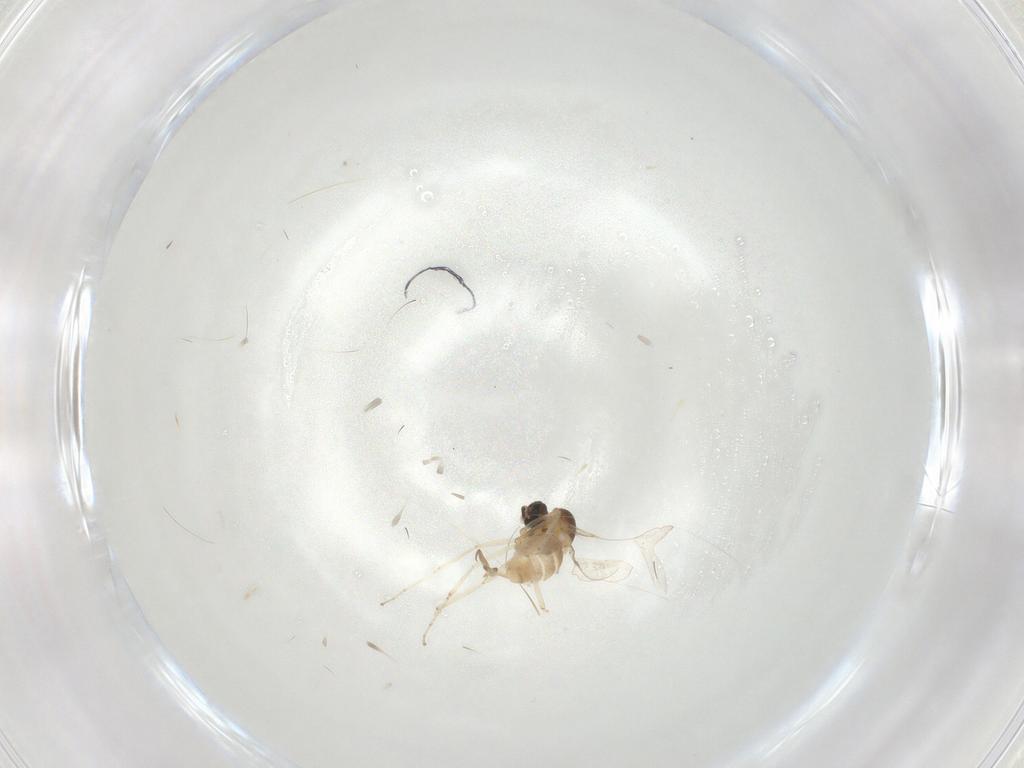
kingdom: Animalia
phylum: Arthropoda
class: Insecta
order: Diptera
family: Cecidomyiidae
